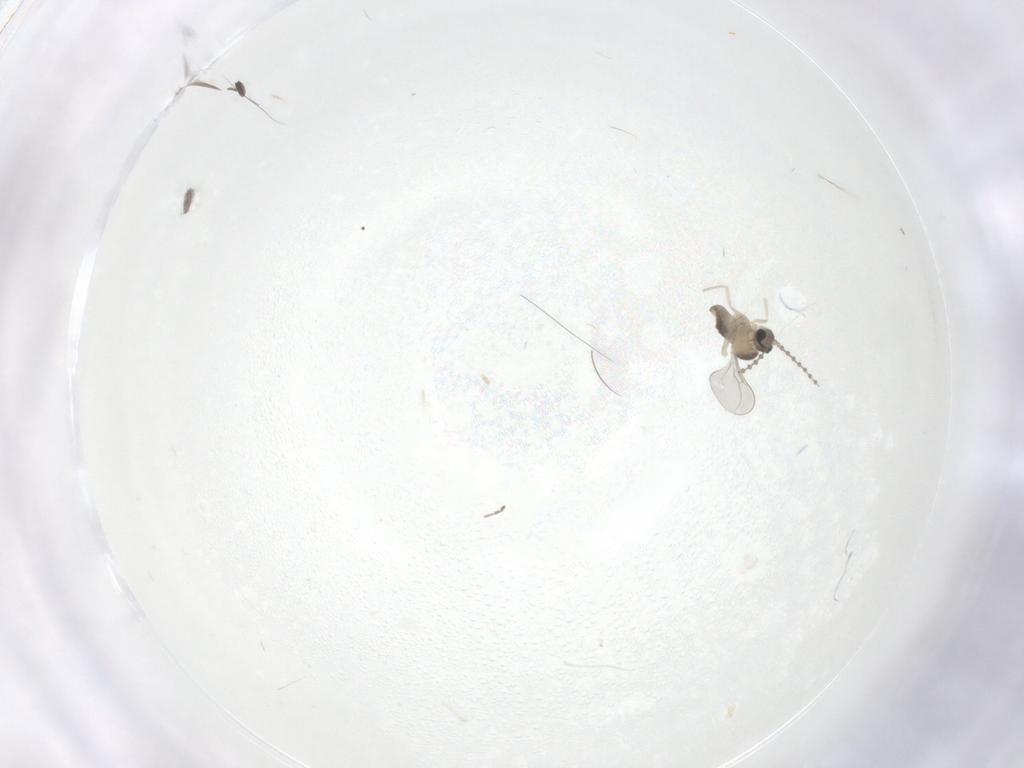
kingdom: Animalia
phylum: Arthropoda
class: Insecta
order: Diptera
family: Cecidomyiidae
